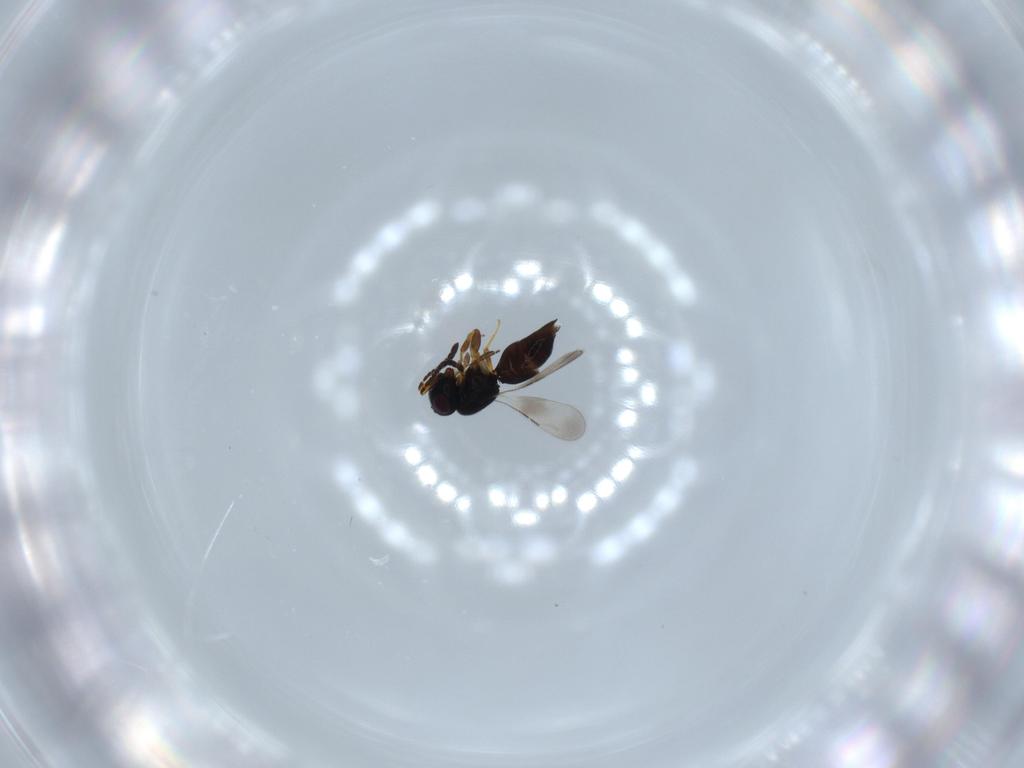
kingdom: Animalia
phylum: Arthropoda
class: Insecta
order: Hymenoptera
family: Ceraphronidae
